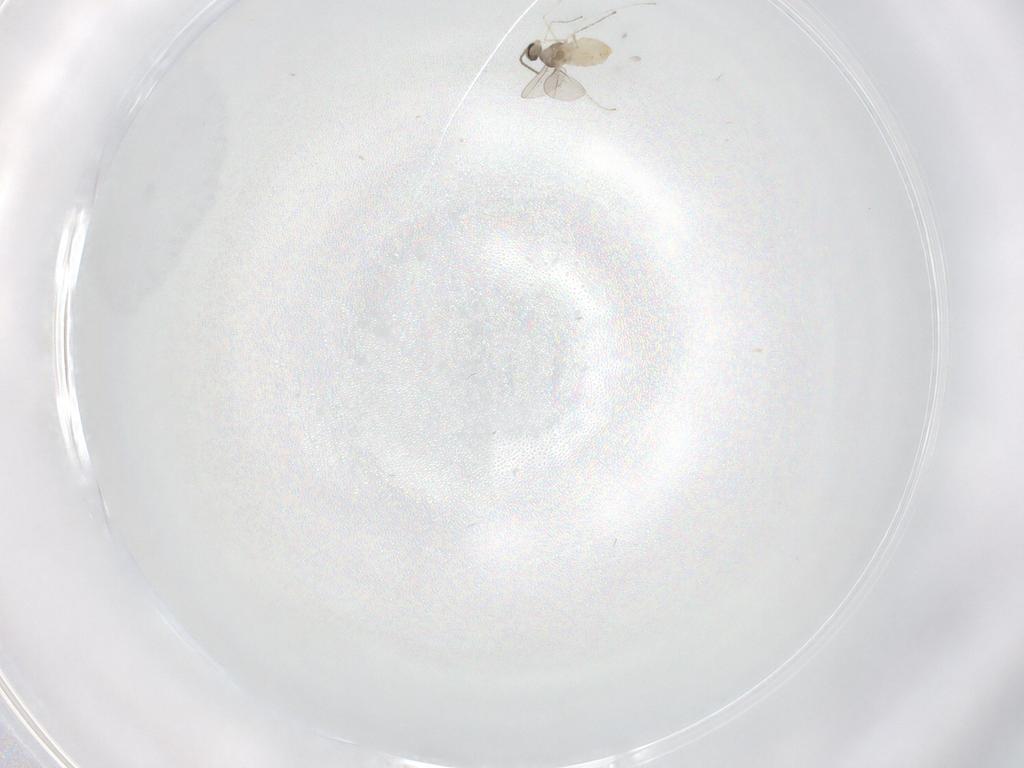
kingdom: Animalia
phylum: Arthropoda
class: Insecta
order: Diptera
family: Cecidomyiidae
